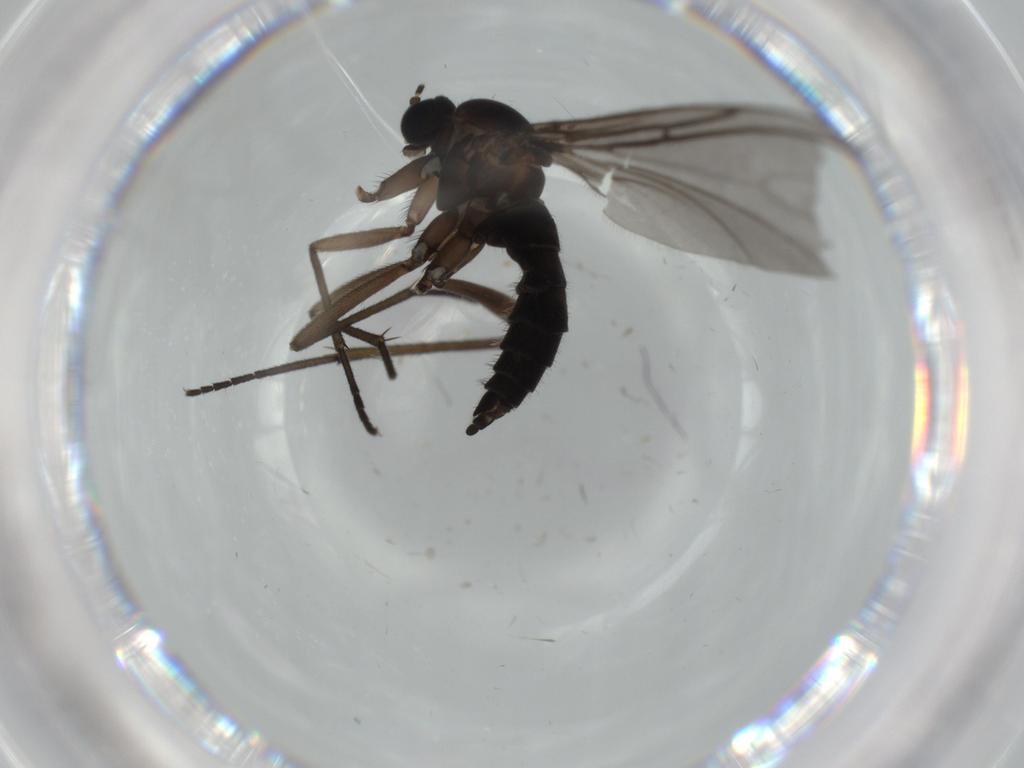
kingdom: Animalia
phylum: Arthropoda
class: Insecta
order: Diptera
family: Sciaridae
